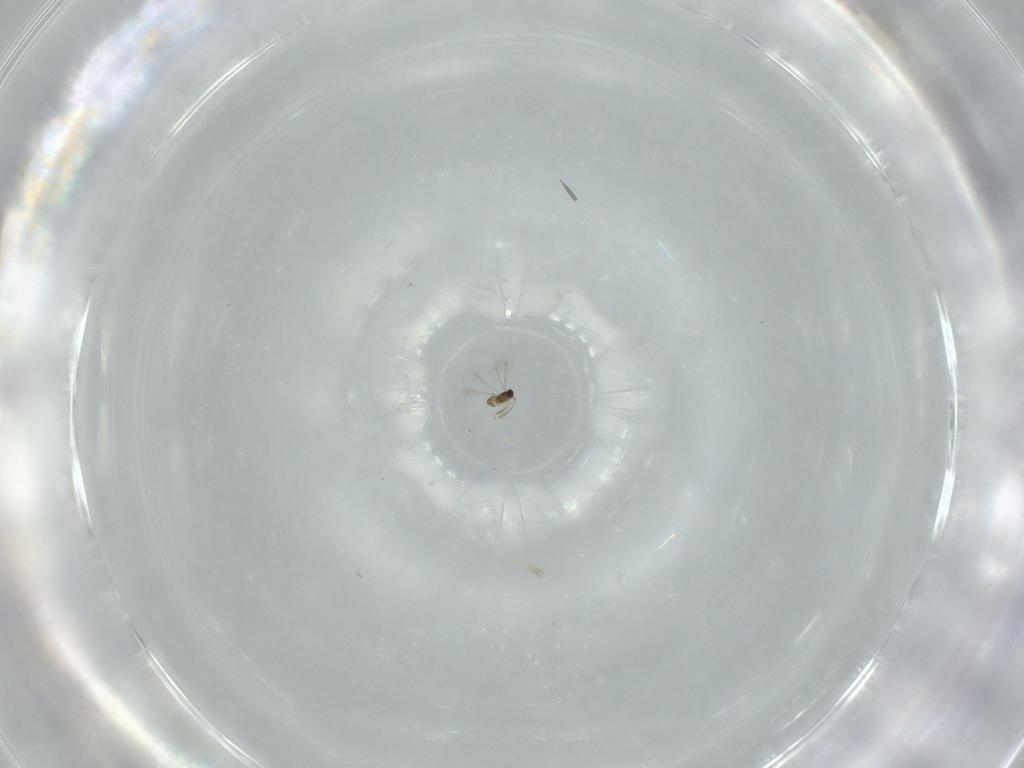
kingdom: Animalia
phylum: Arthropoda
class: Insecta
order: Hymenoptera
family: Mymaridae
